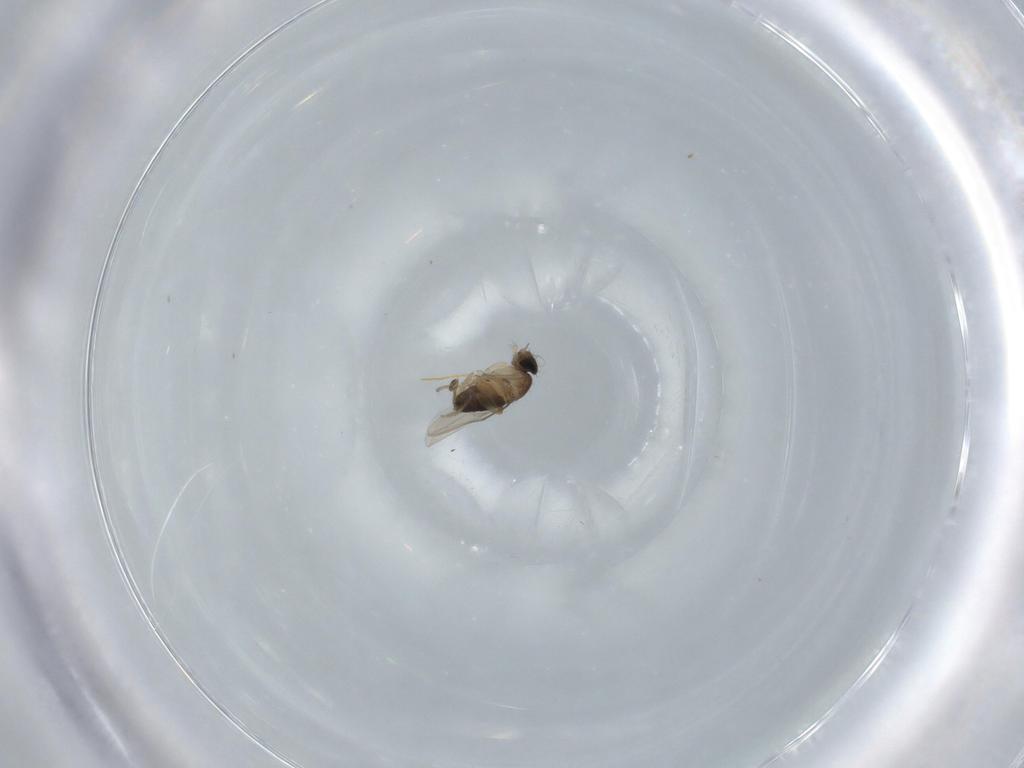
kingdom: Animalia
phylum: Arthropoda
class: Insecta
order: Diptera
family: Phoridae
